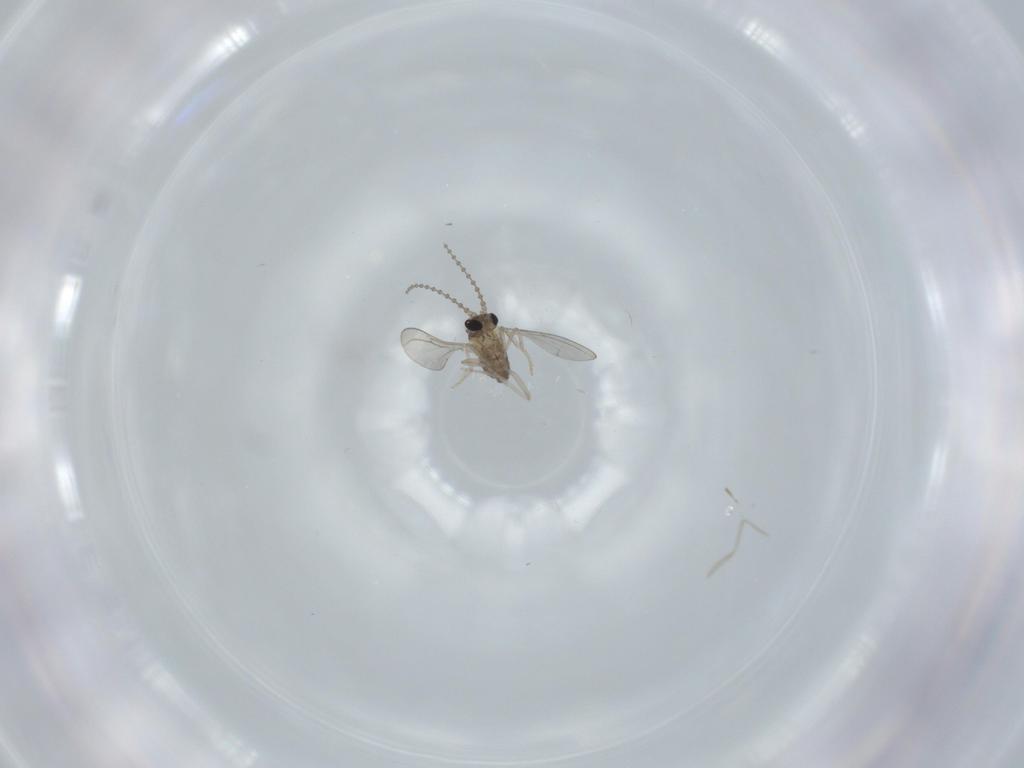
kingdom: Animalia
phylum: Arthropoda
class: Insecta
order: Diptera
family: Cecidomyiidae
